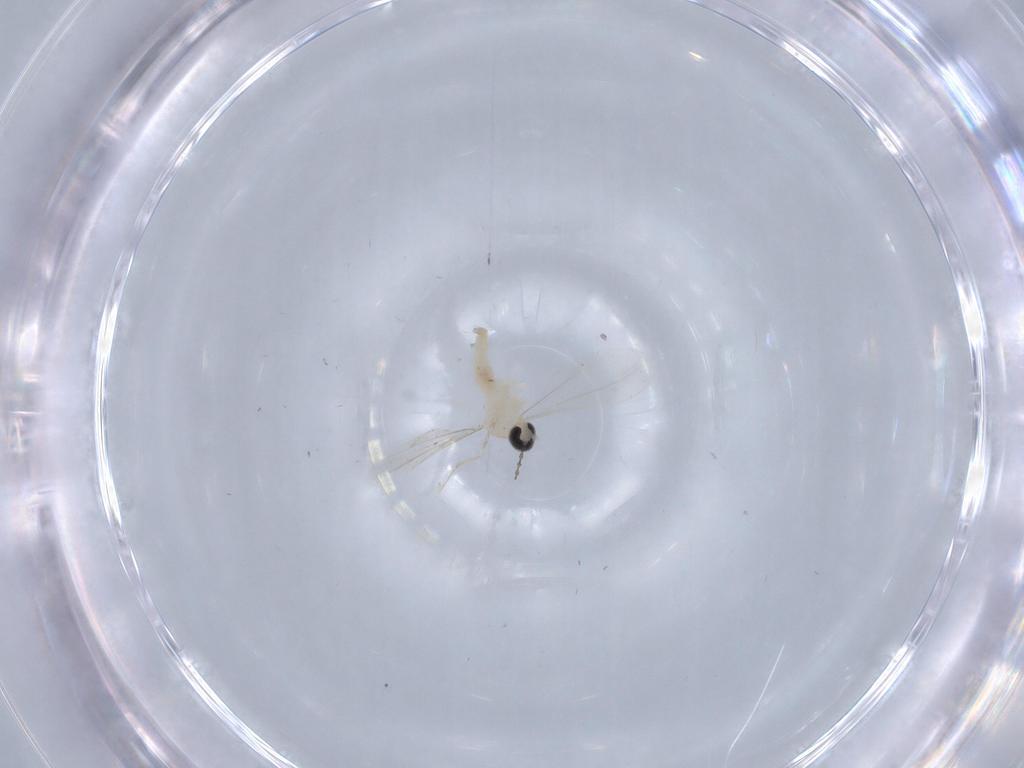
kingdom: Animalia
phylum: Arthropoda
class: Insecta
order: Diptera
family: Cecidomyiidae
